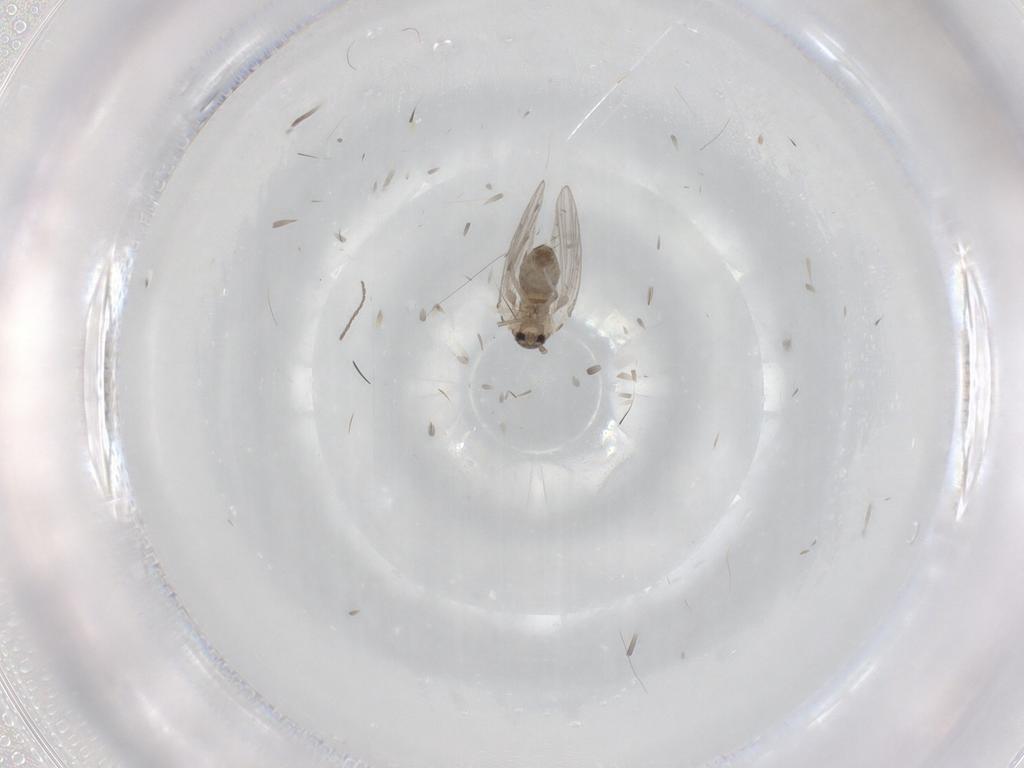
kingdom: Animalia
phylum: Arthropoda
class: Insecta
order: Diptera
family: Cecidomyiidae
